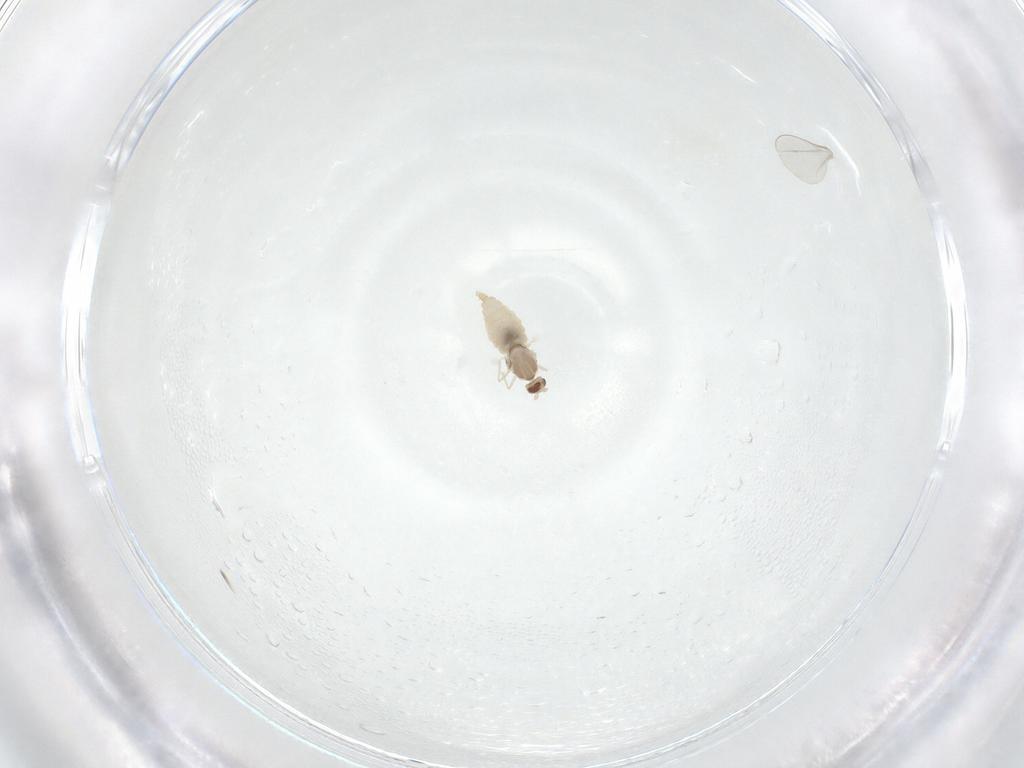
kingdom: Animalia
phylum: Arthropoda
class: Insecta
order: Diptera
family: Cecidomyiidae
